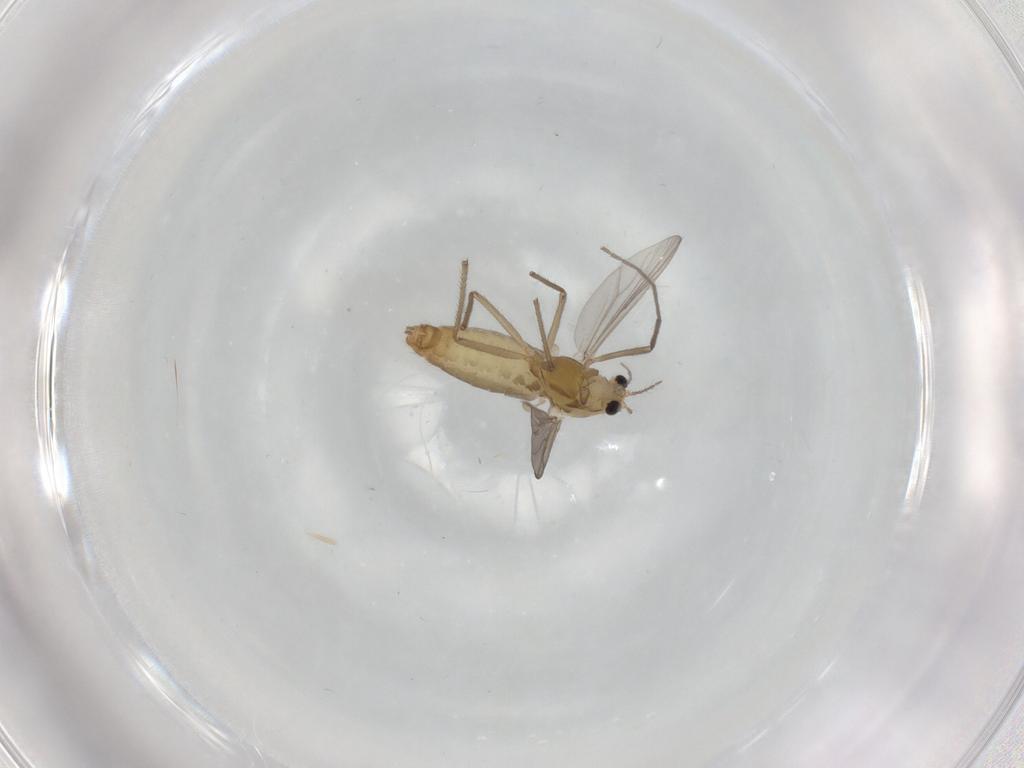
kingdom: Animalia
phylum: Arthropoda
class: Insecta
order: Diptera
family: Chironomidae
